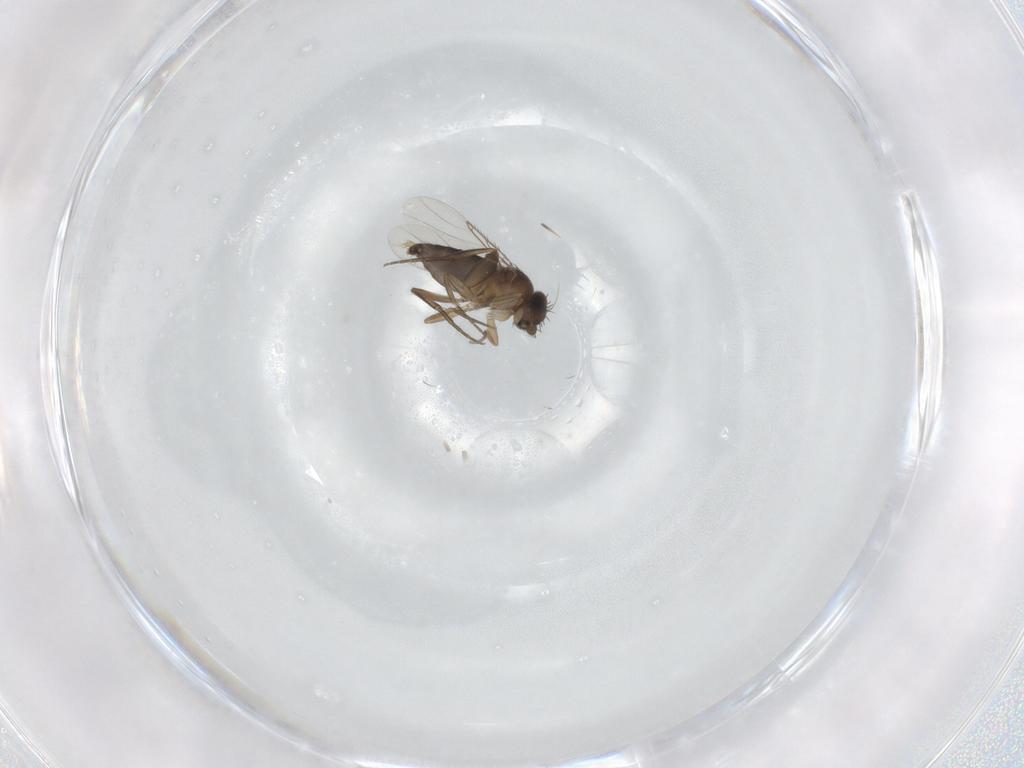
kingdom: Animalia
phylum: Arthropoda
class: Insecta
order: Diptera
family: Phoridae
